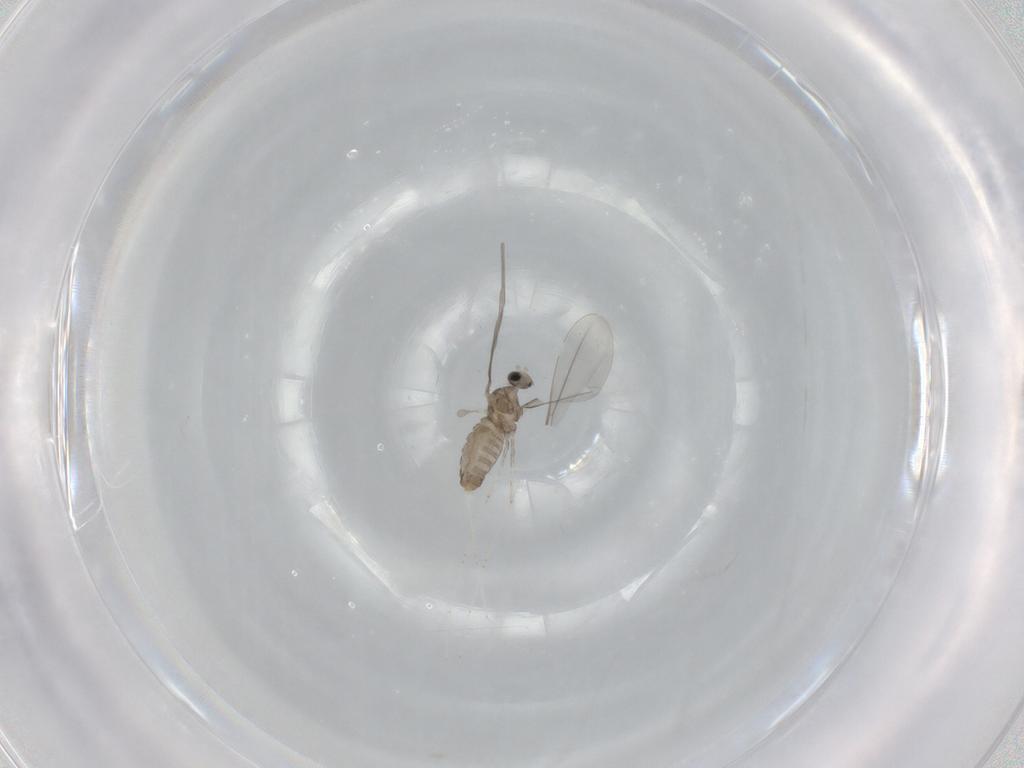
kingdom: Animalia
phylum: Arthropoda
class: Insecta
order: Diptera
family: Cecidomyiidae
